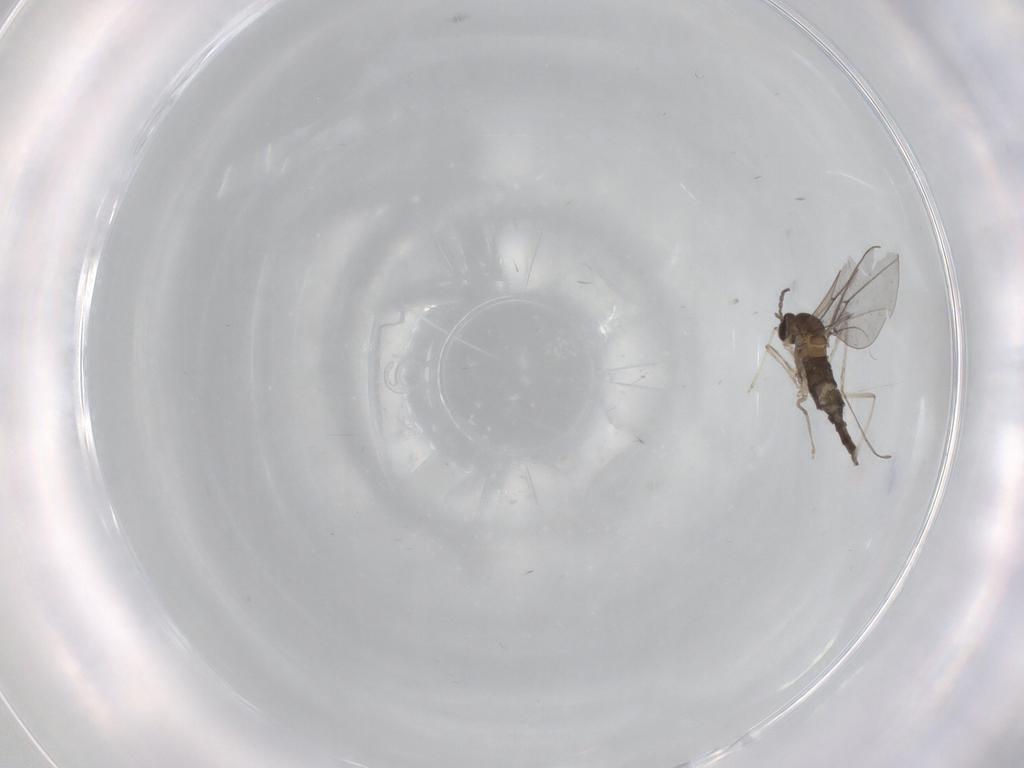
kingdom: Animalia
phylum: Arthropoda
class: Insecta
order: Diptera
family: Cecidomyiidae
